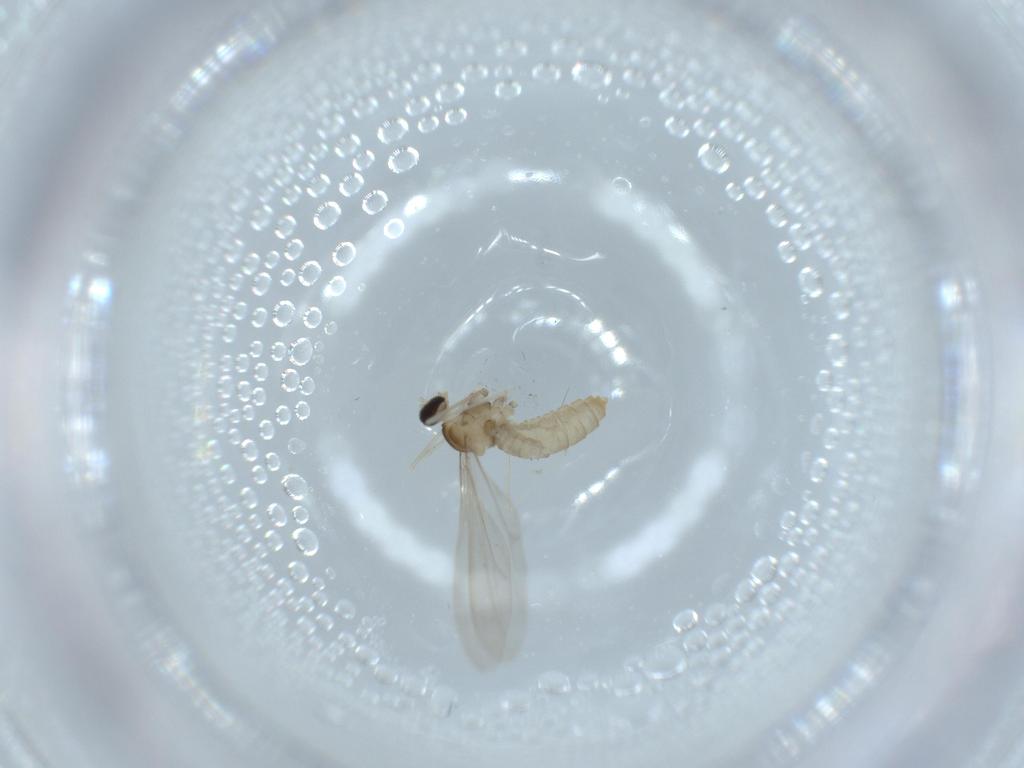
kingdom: Animalia
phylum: Arthropoda
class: Insecta
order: Diptera
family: Cecidomyiidae
